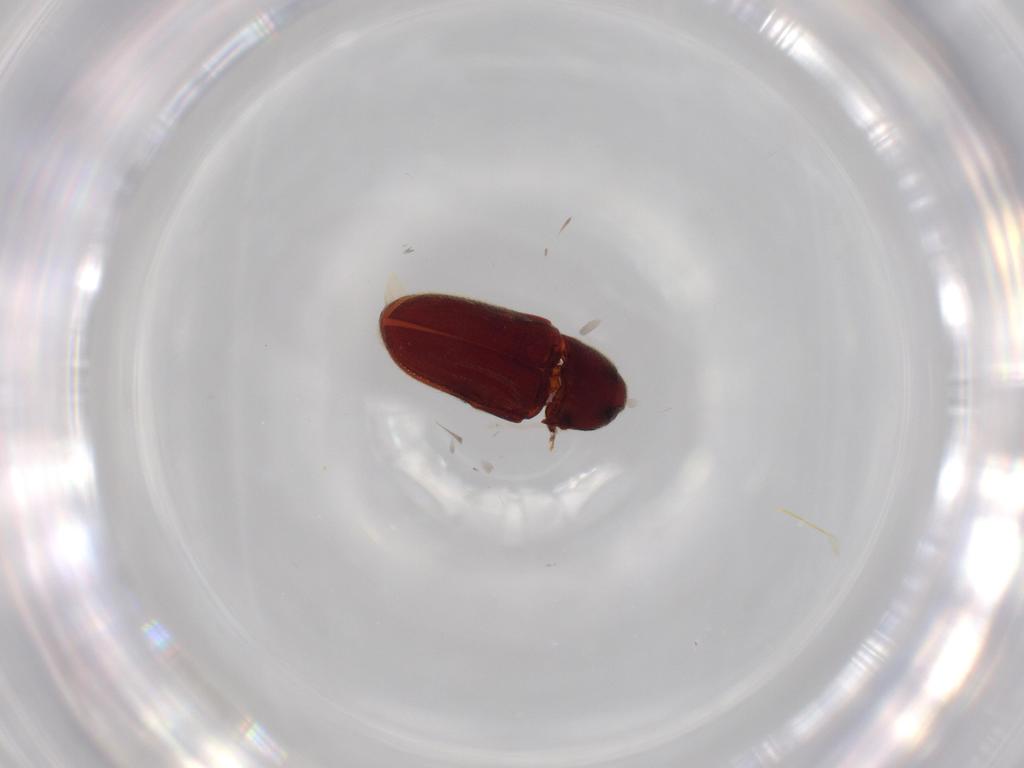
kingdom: Animalia
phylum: Arthropoda
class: Insecta
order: Coleoptera
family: Throscidae
